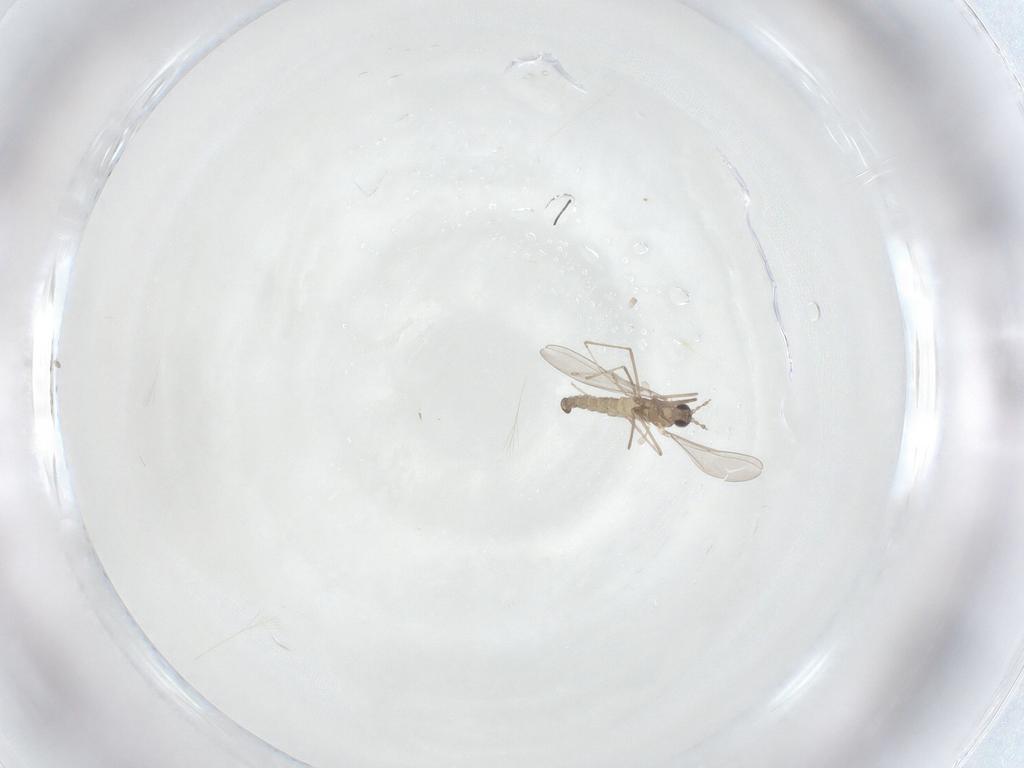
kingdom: Animalia
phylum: Arthropoda
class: Insecta
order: Diptera
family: Cecidomyiidae
